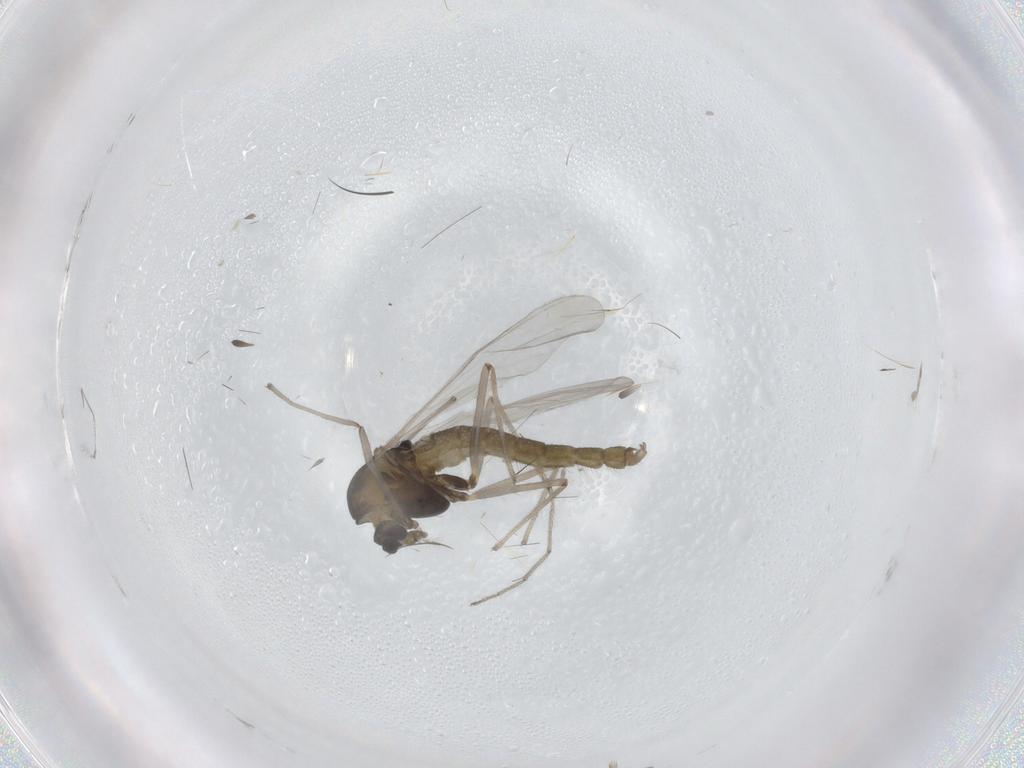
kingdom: Animalia
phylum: Arthropoda
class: Insecta
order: Diptera
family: Chironomidae
